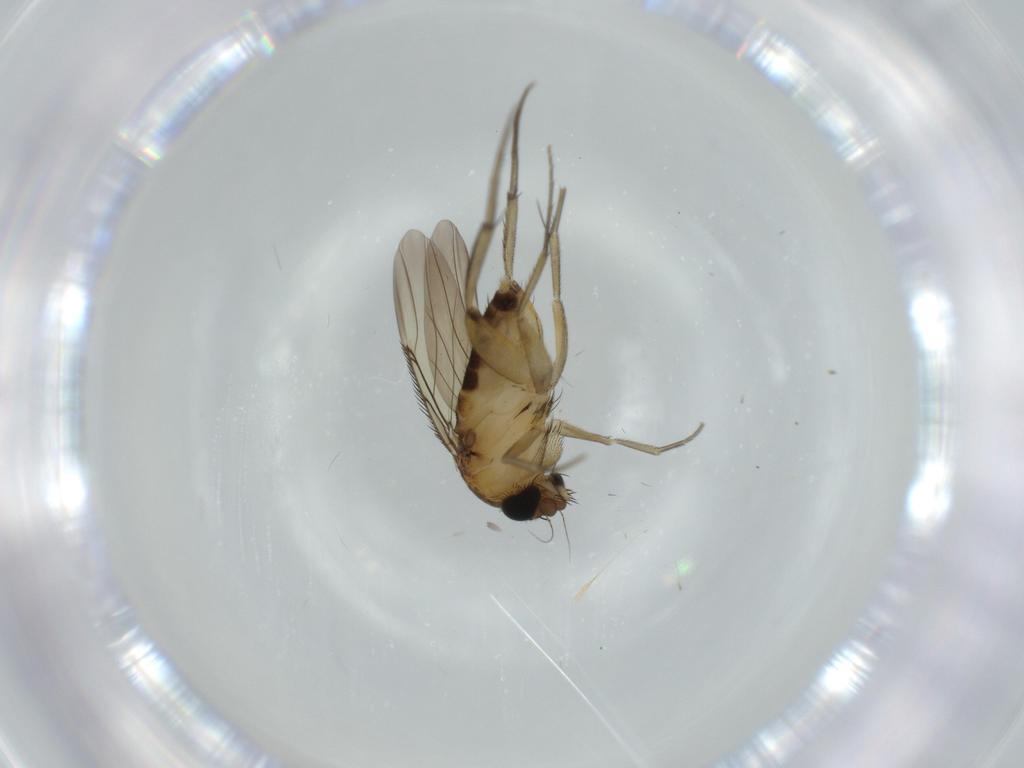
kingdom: Animalia
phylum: Arthropoda
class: Insecta
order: Diptera
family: Phoridae
